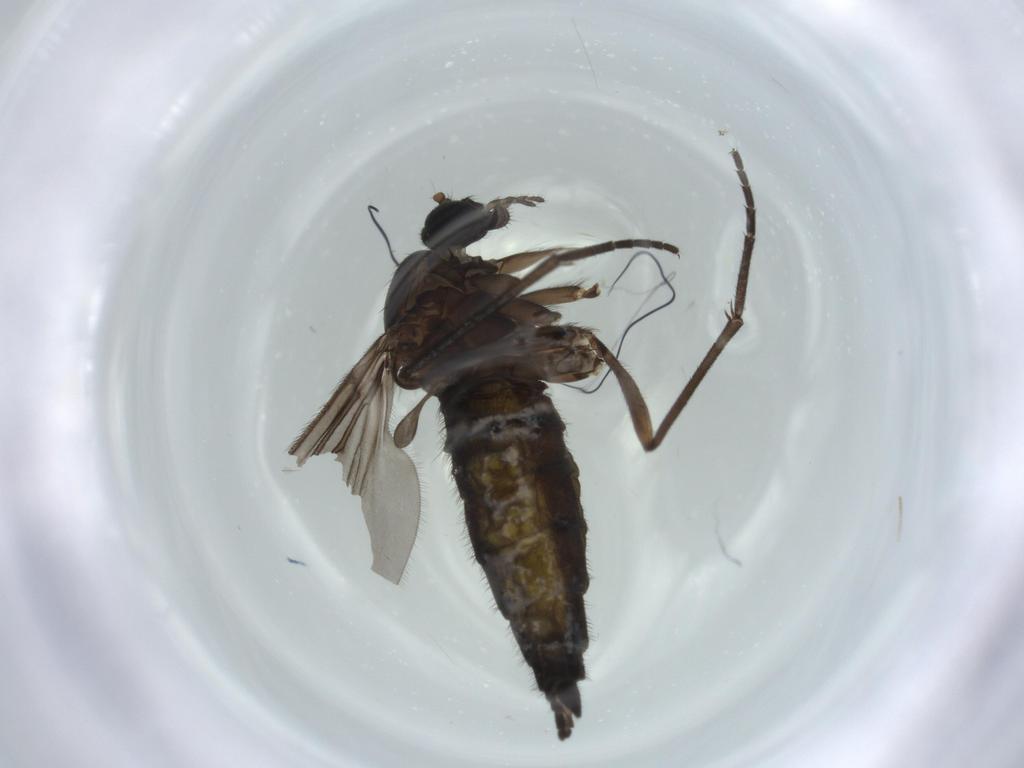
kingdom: Animalia
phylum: Arthropoda
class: Insecta
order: Diptera
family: Sciaridae
